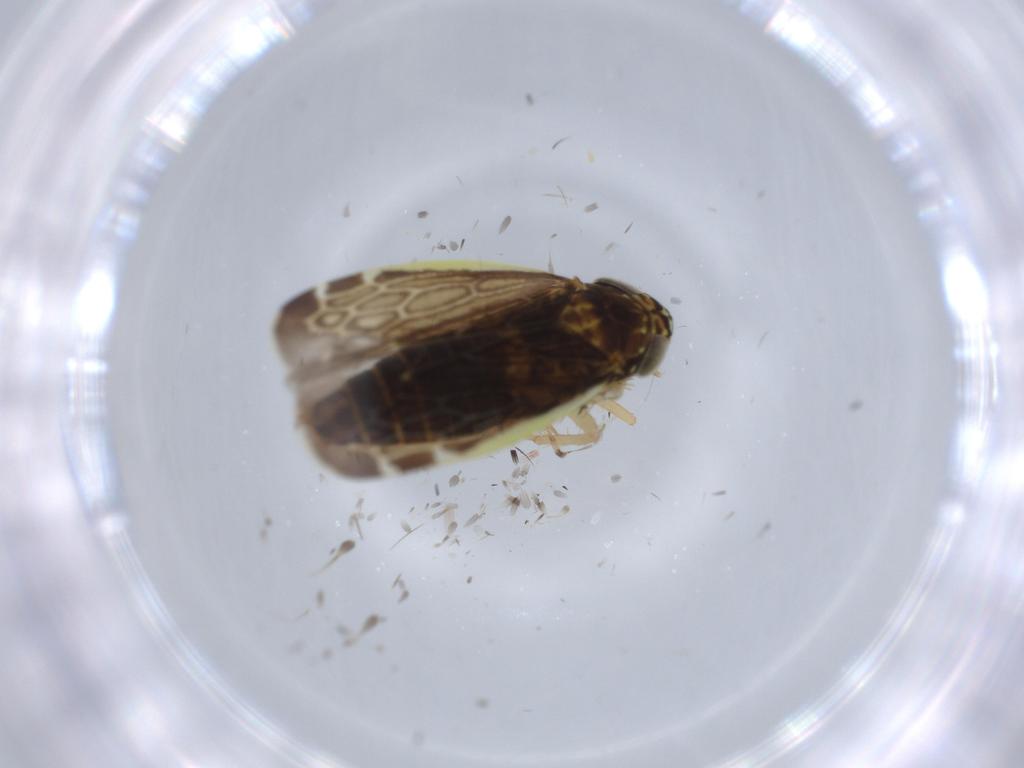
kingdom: Animalia
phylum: Arthropoda
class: Insecta
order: Hemiptera
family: Cicadellidae
